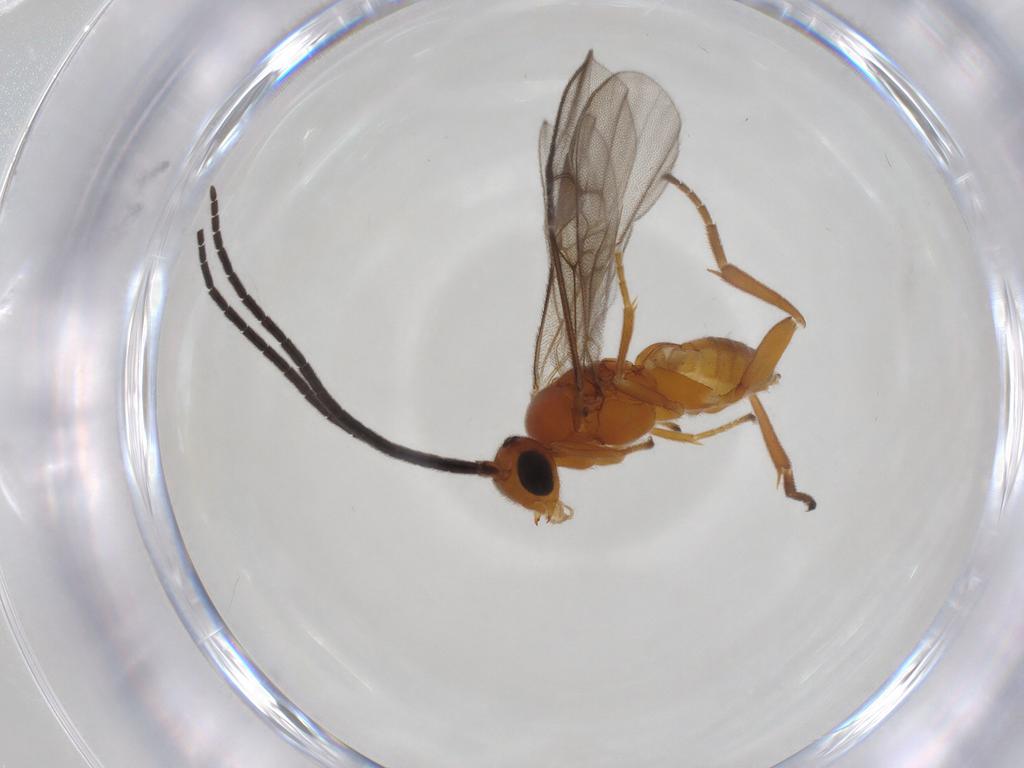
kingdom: Animalia
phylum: Arthropoda
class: Insecta
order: Hymenoptera
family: Braconidae
